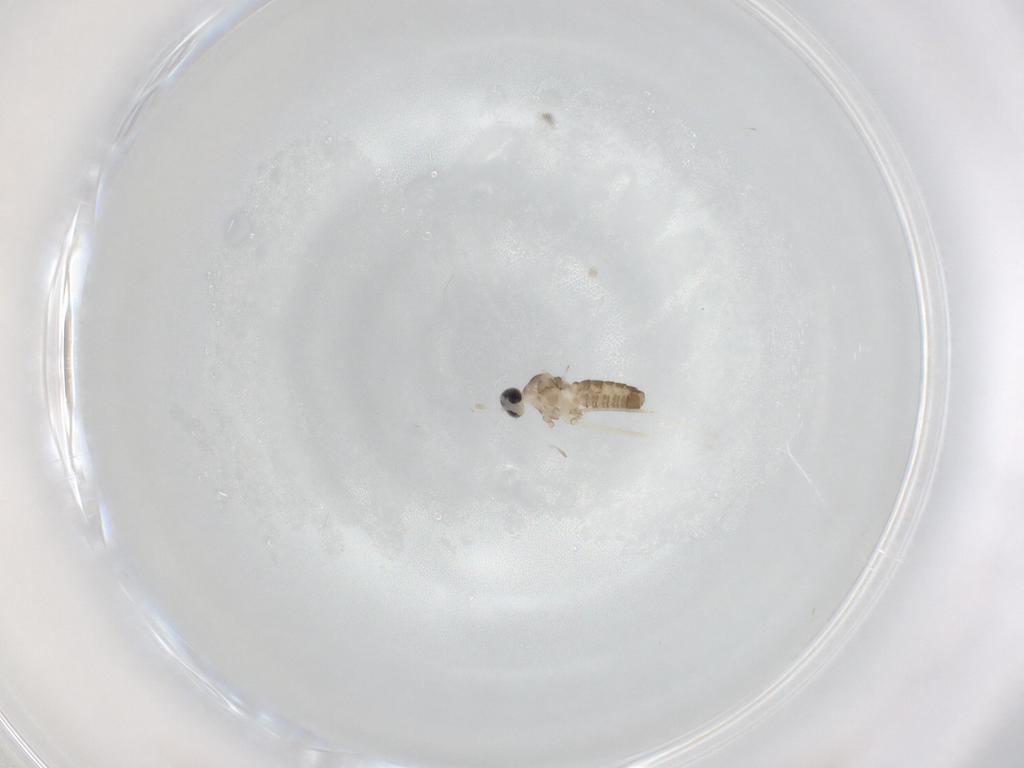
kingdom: Animalia
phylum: Arthropoda
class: Insecta
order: Diptera
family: Cecidomyiidae
